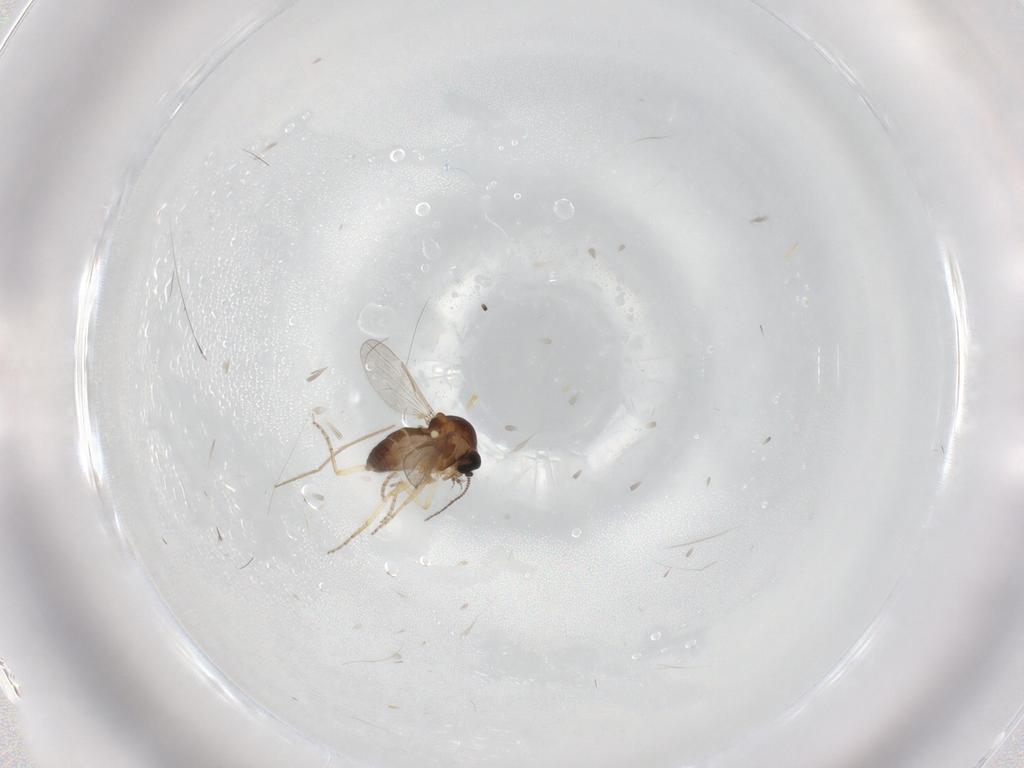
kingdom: Animalia
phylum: Arthropoda
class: Insecta
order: Diptera
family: Ceratopogonidae
